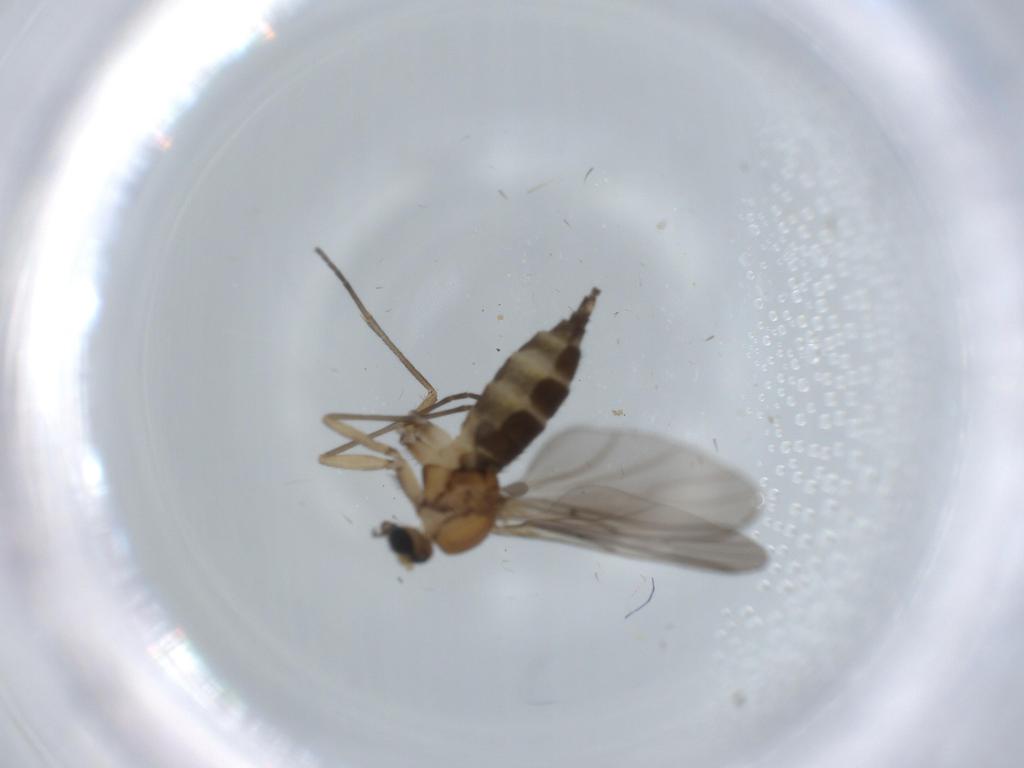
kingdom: Animalia
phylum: Arthropoda
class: Insecta
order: Diptera
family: Sciaridae
